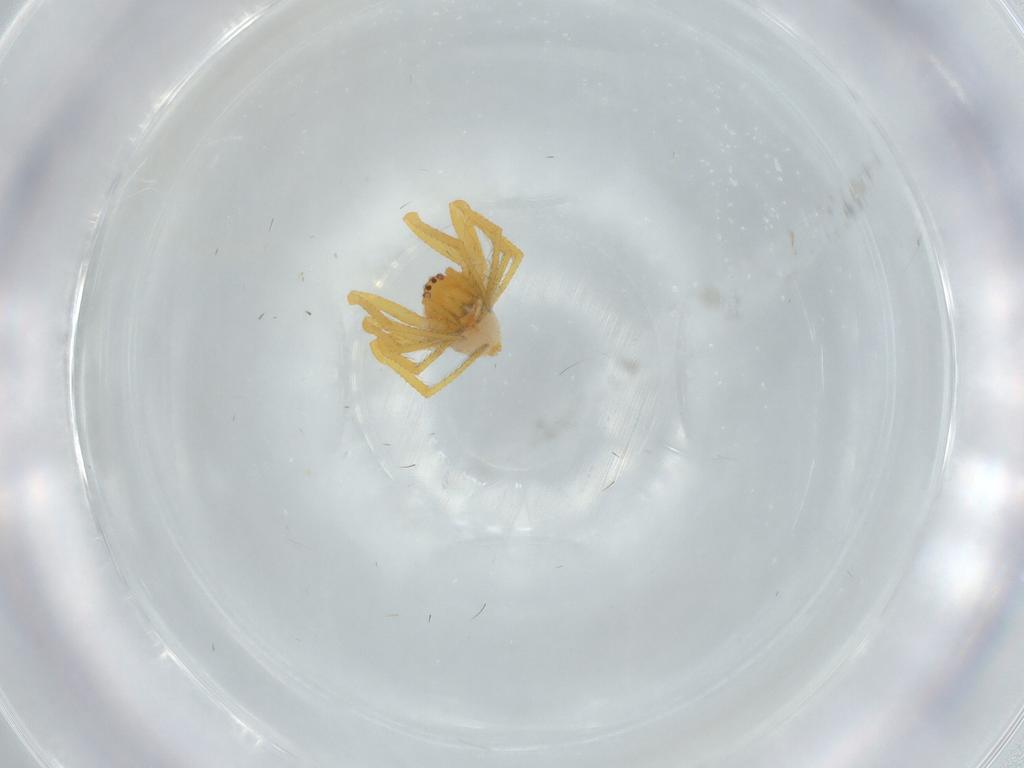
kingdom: Animalia
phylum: Arthropoda
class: Arachnida
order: Araneae
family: Theridiidae
